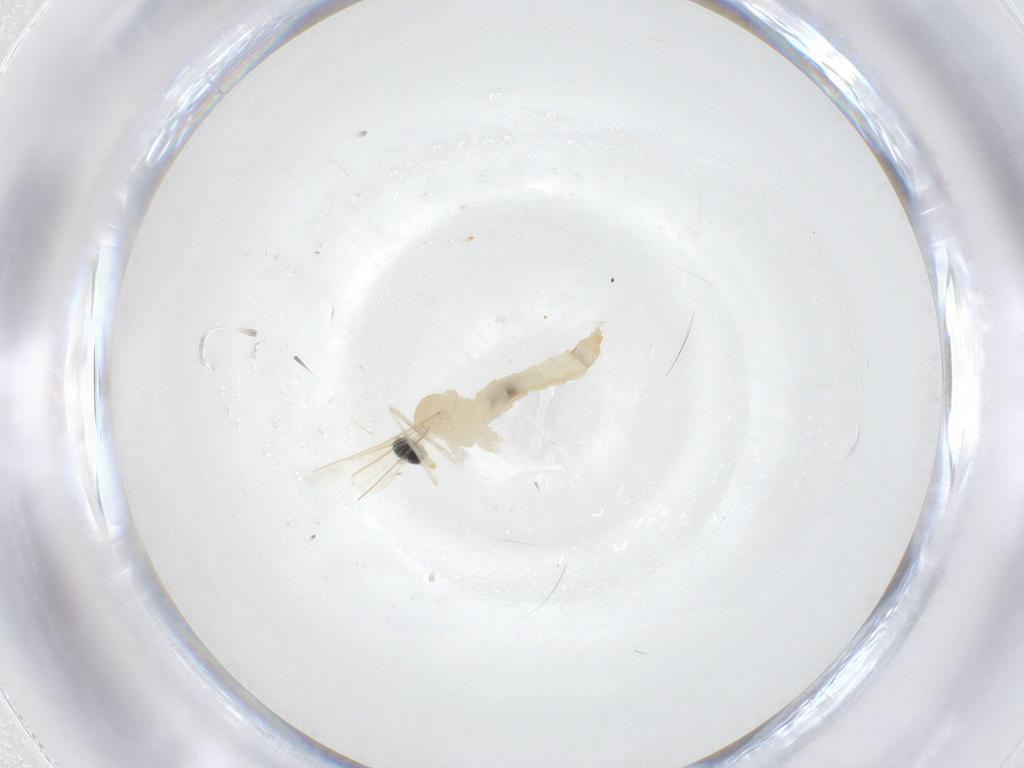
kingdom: Animalia
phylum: Arthropoda
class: Insecta
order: Diptera
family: Cecidomyiidae
